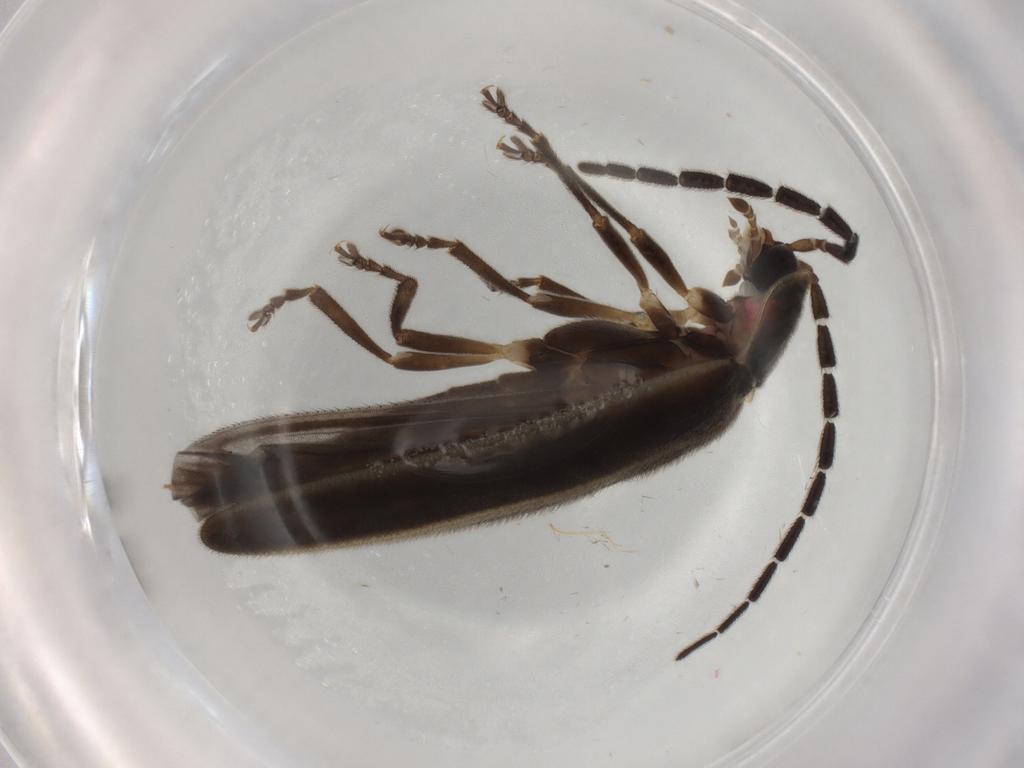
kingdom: Animalia
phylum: Arthropoda
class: Insecta
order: Coleoptera
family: Lampyridae
